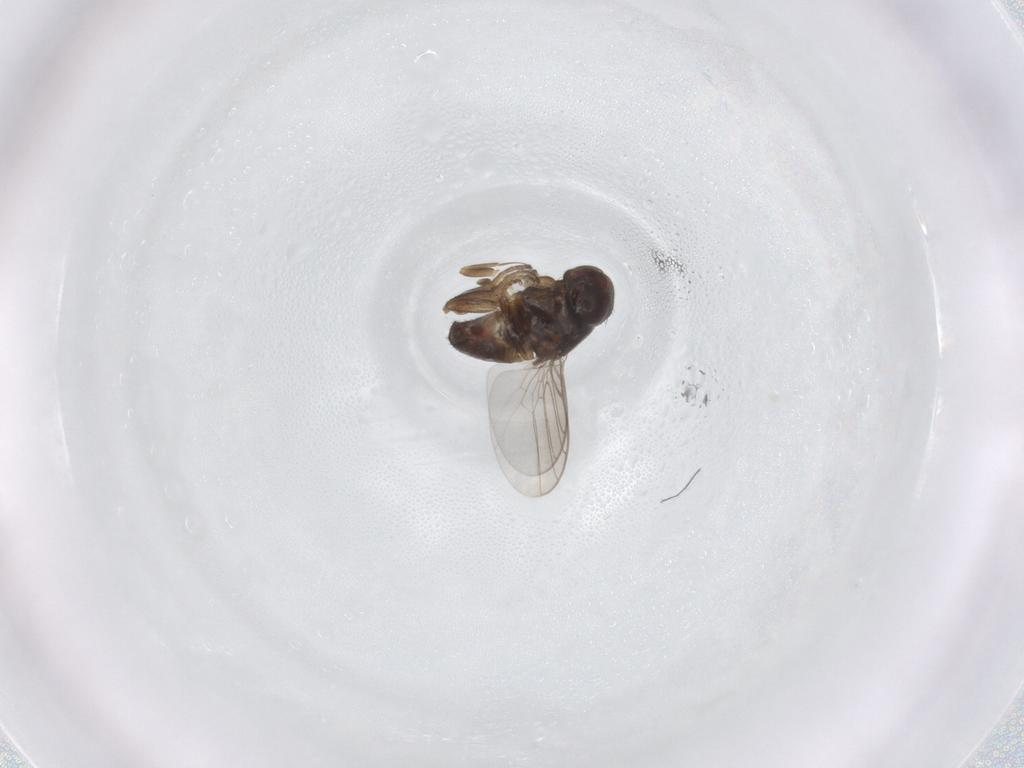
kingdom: Animalia
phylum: Arthropoda
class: Insecta
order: Diptera
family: Chloropidae
